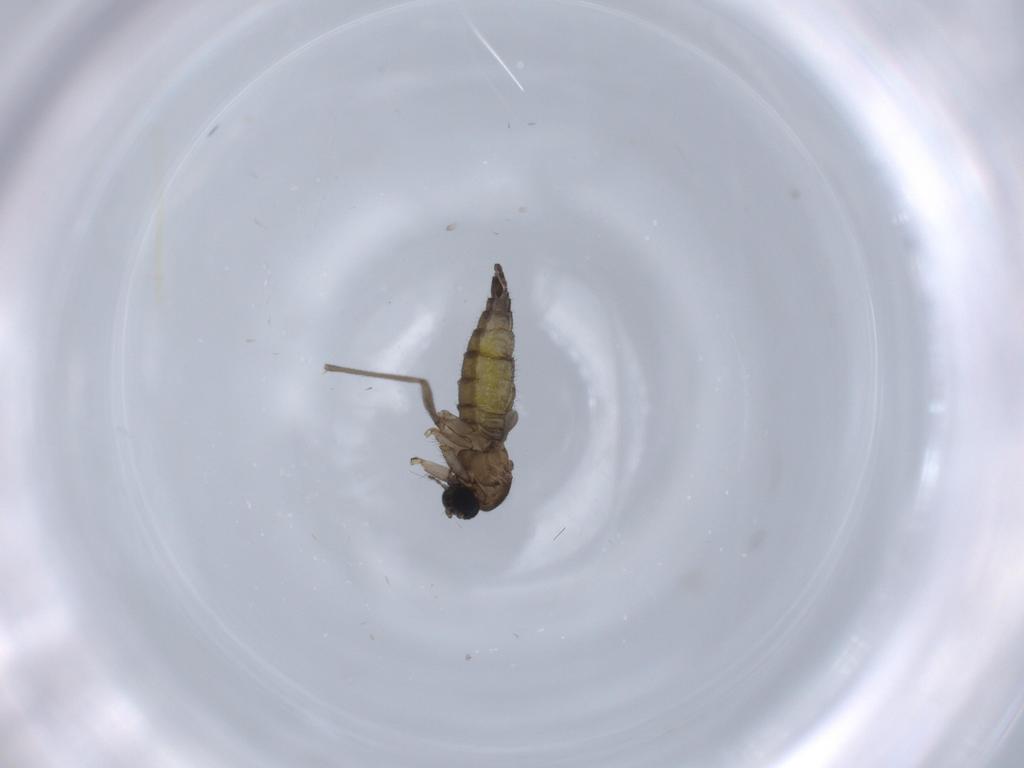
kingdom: Animalia
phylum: Arthropoda
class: Insecta
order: Diptera
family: Sciaridae
